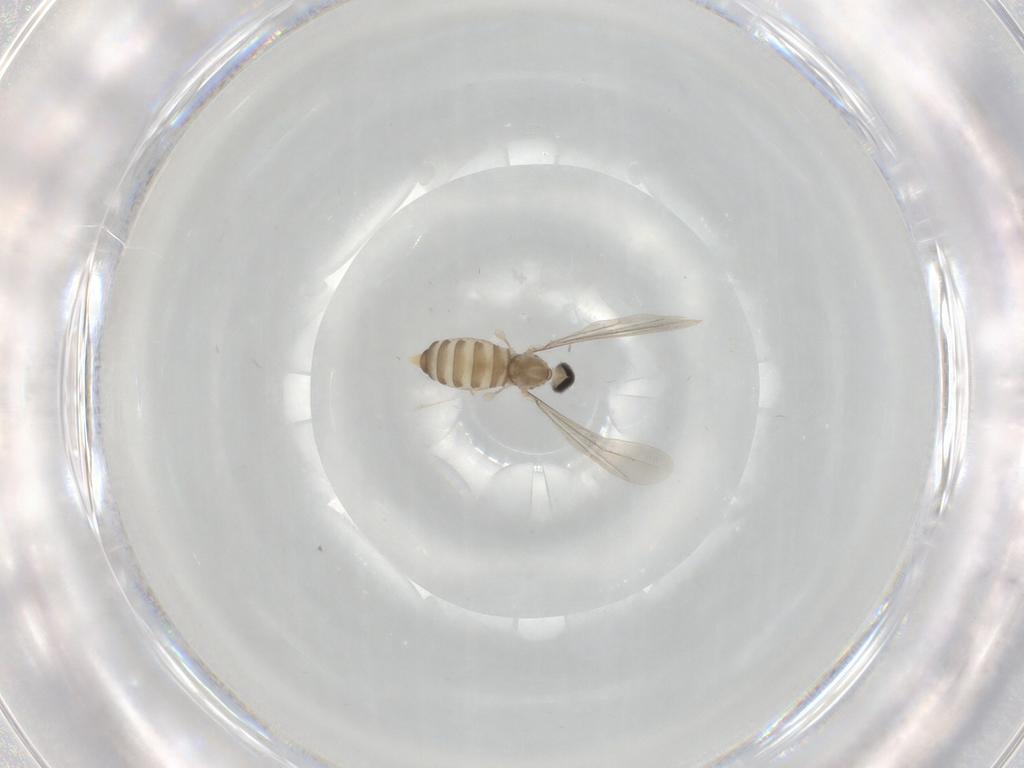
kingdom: Animalia
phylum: Arthropoda
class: Insecta
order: Diptera
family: Cecidomyiidae
